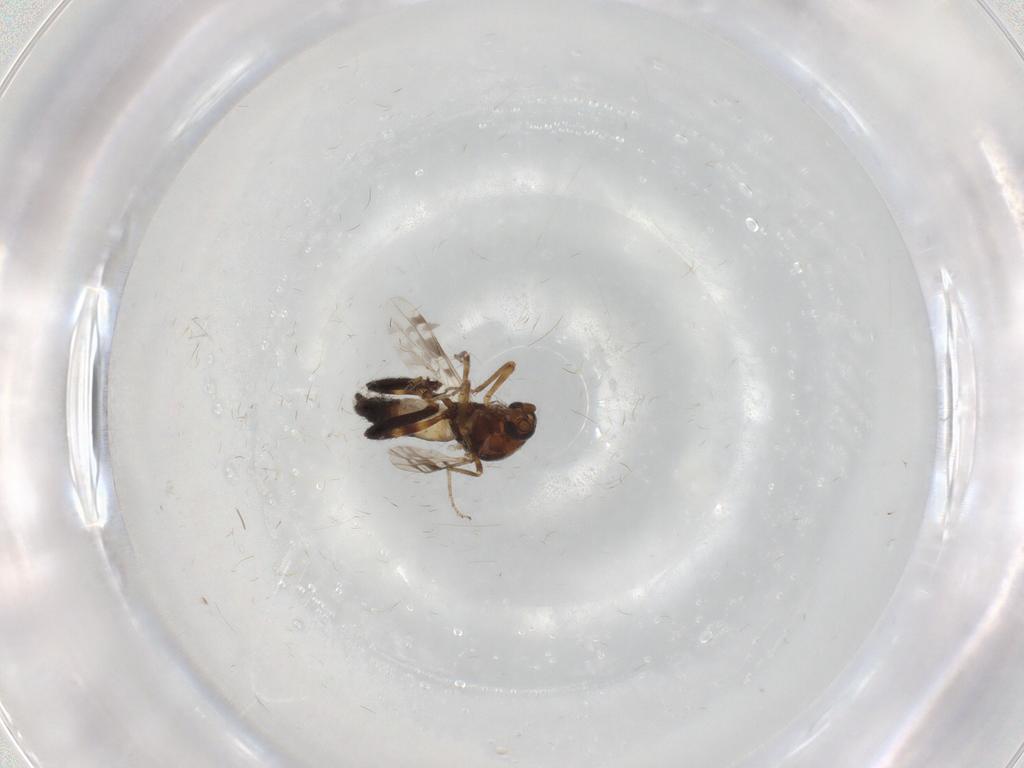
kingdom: Animalia
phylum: Arthropoda
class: Insecta
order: Diptera
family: Ceratopogonidae
